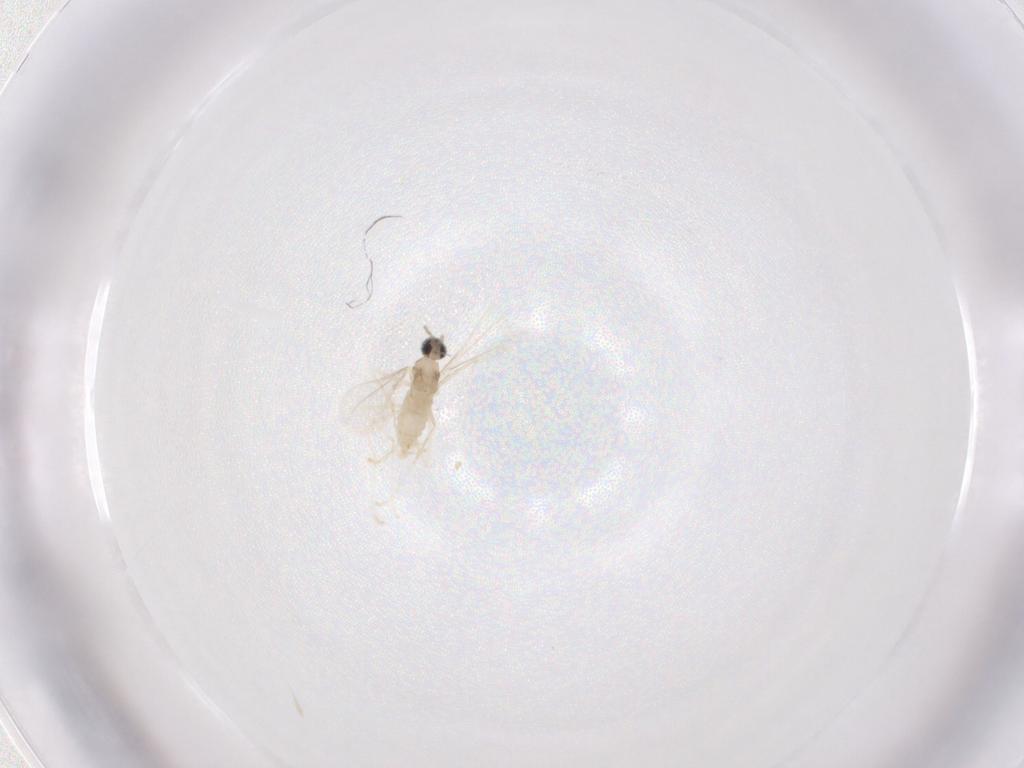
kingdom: Animalia
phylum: Arthropoda
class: Insecta
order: Diptera
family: Cecidomyiidae
